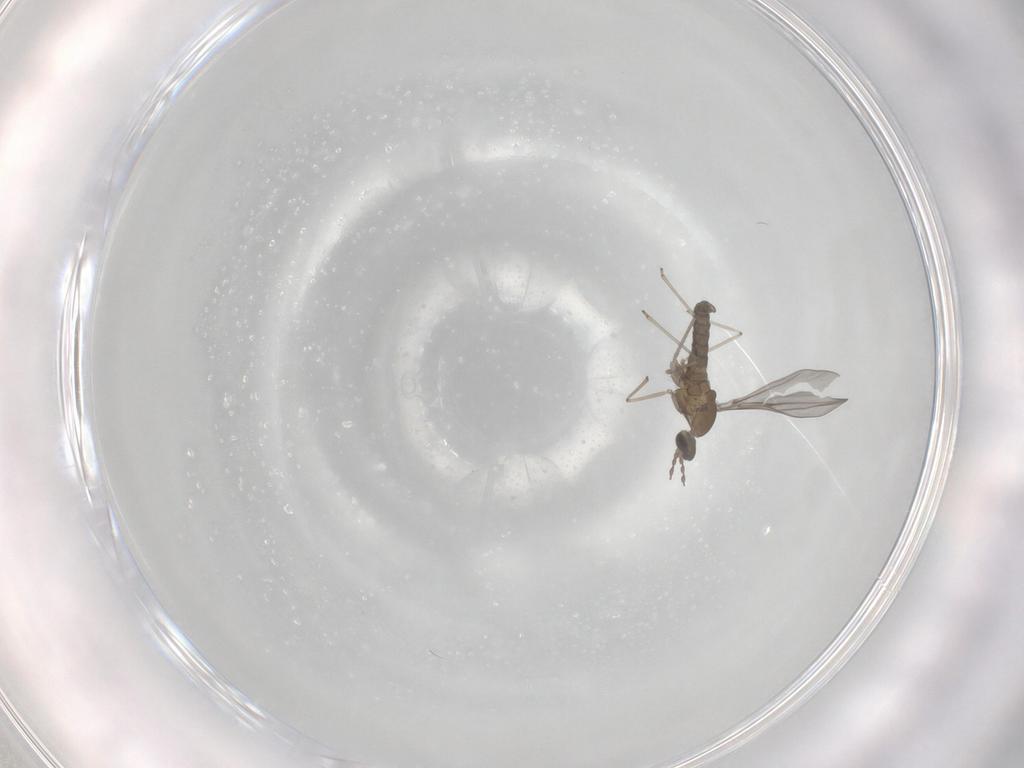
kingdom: Animalia
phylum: Arthropoda
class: Insecta
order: Diptera
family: Cecidomyiidae
